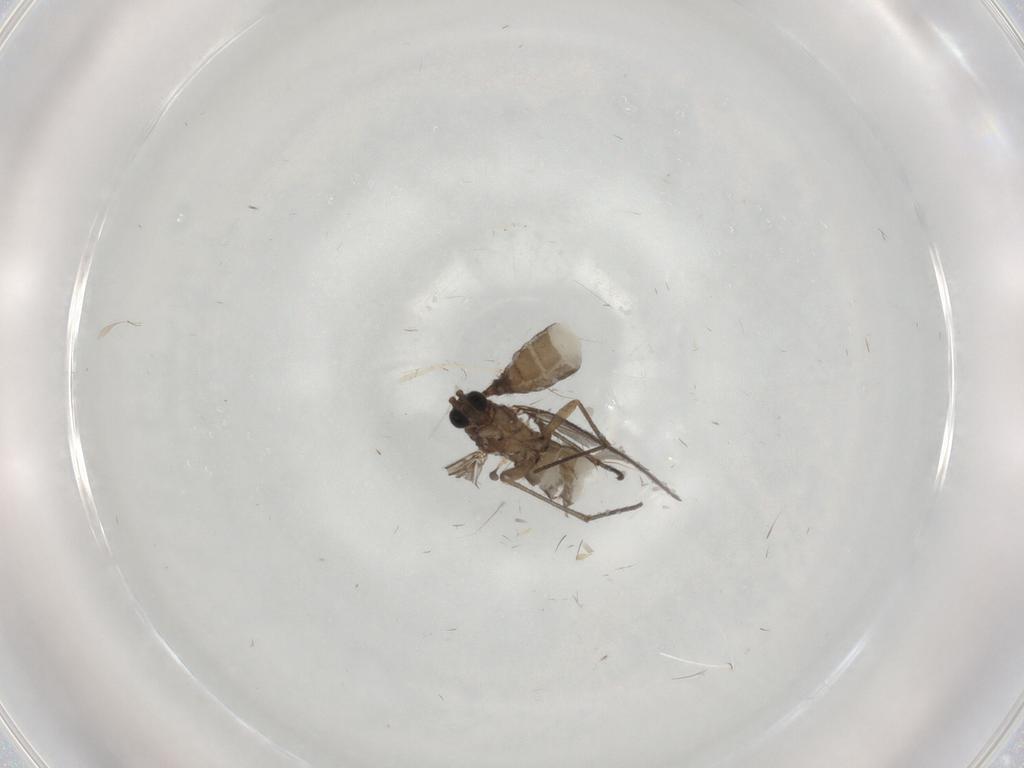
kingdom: Animalia
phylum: Arthropoda
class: Insecta
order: Diptera
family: Cecidomyiidae
